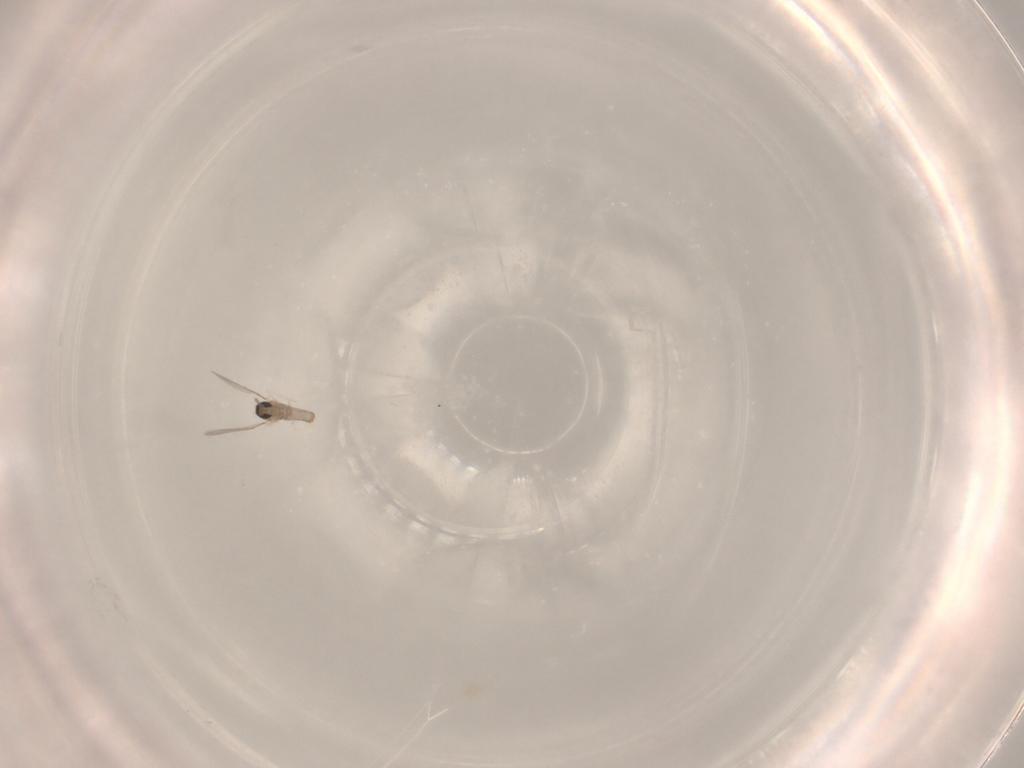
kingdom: Animalia
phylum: Arthropoda
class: Insecta
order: Diptera
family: Cecidomyiidae
